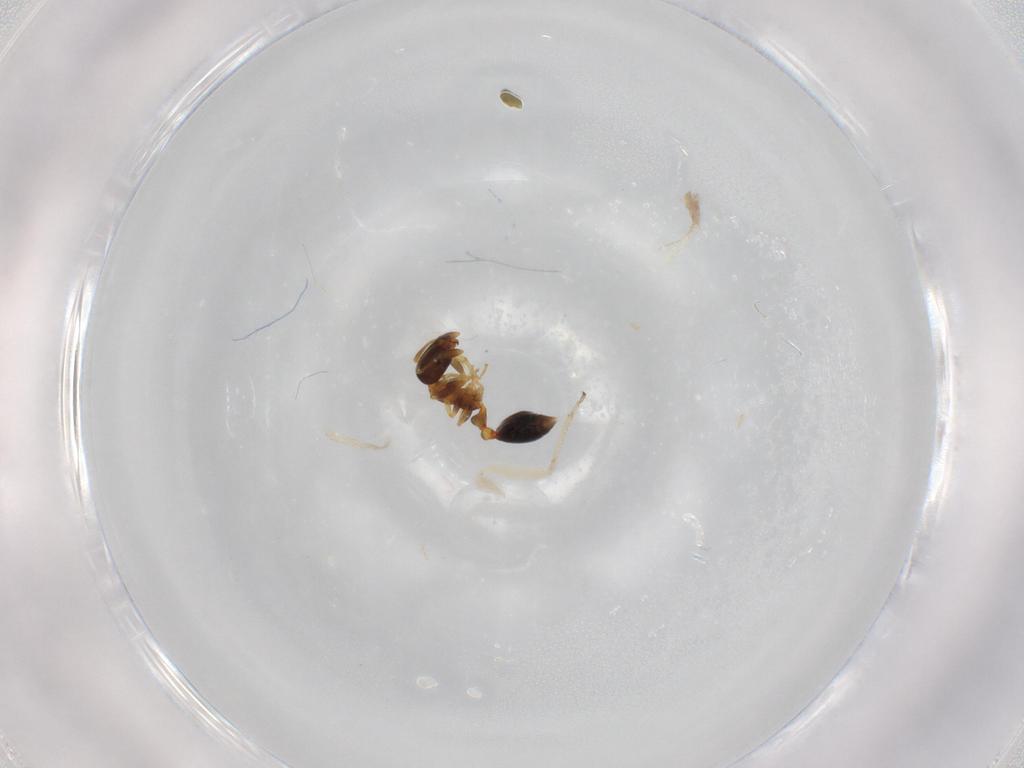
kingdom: Animalia
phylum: Arthropoda
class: Insecta
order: Hymenoptera
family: Formicidae
